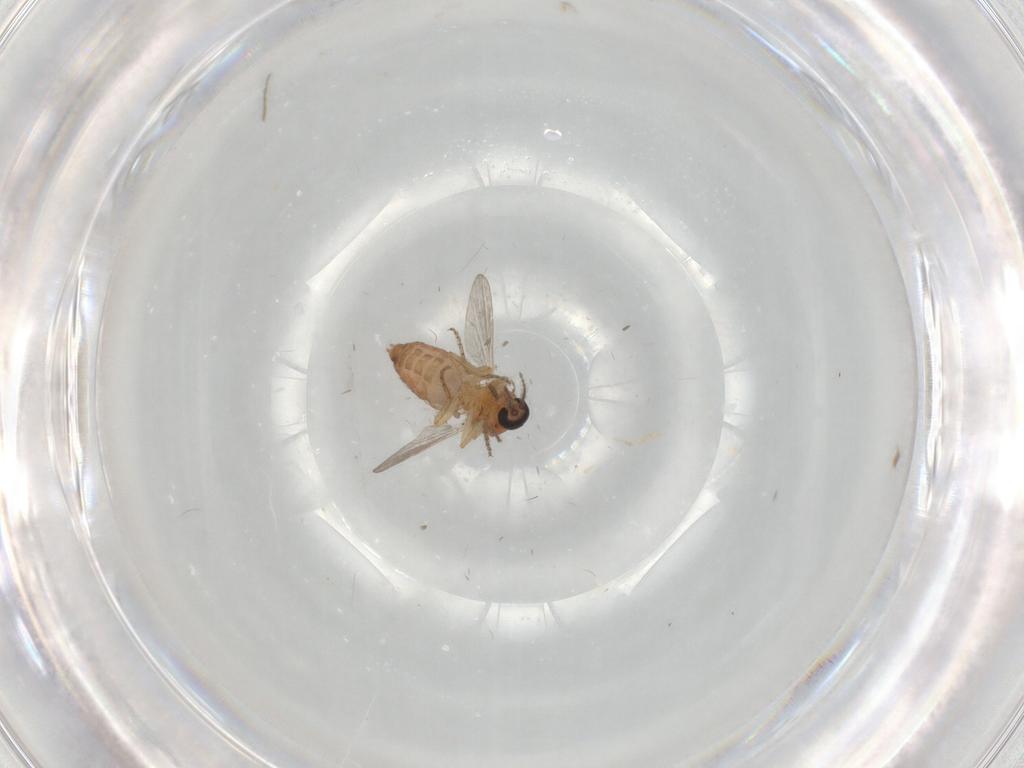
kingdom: Animalia
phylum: Arthropoda
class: Insecta
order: Diptera
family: Ceratopogonidae
